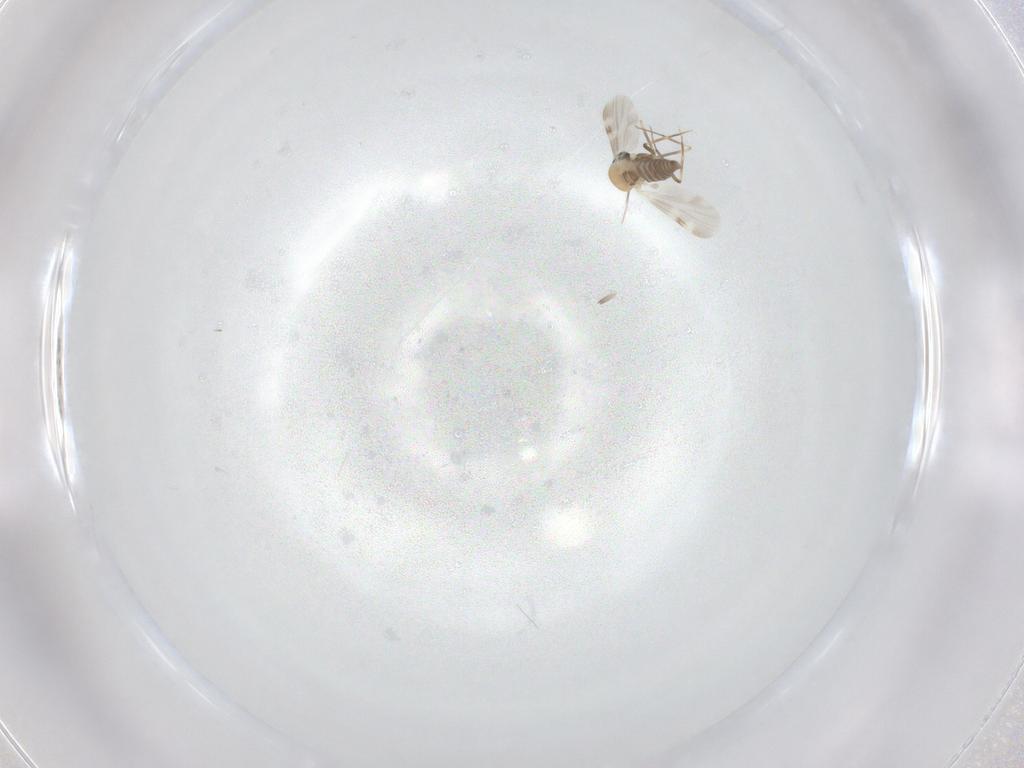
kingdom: Animalia
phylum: Arthropoda
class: Insecta
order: Diptera
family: Ceratopogonidae
